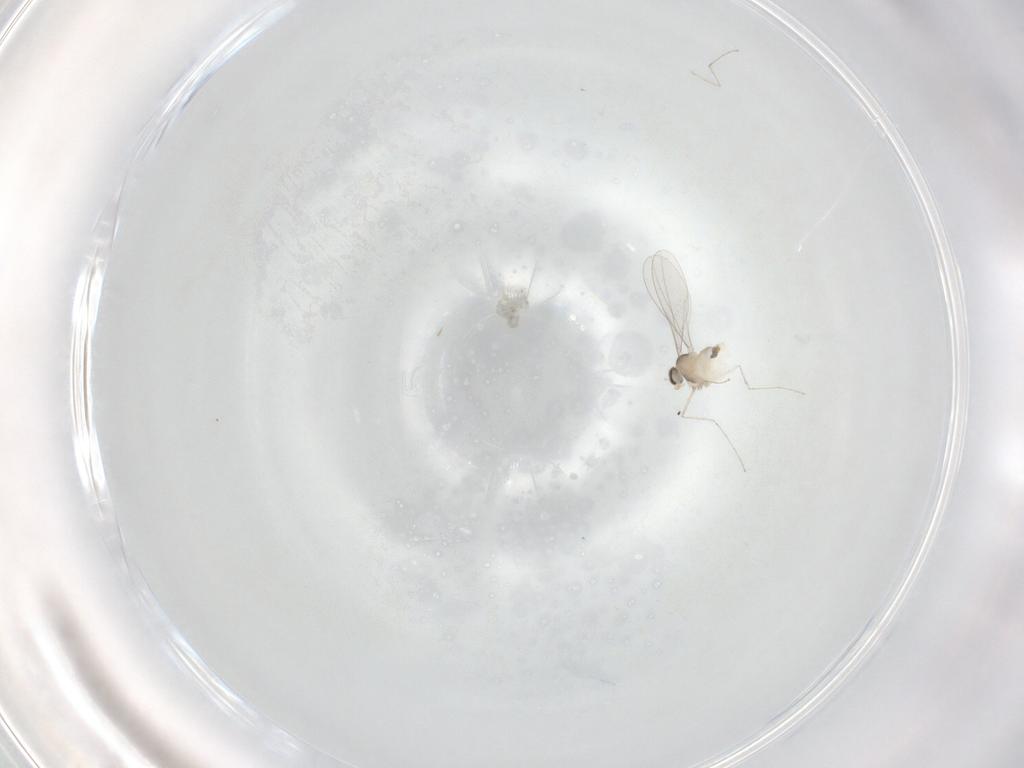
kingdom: Animalia
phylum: Arthropoda
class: Insecta
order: Diptera
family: Cecidomyiidae
